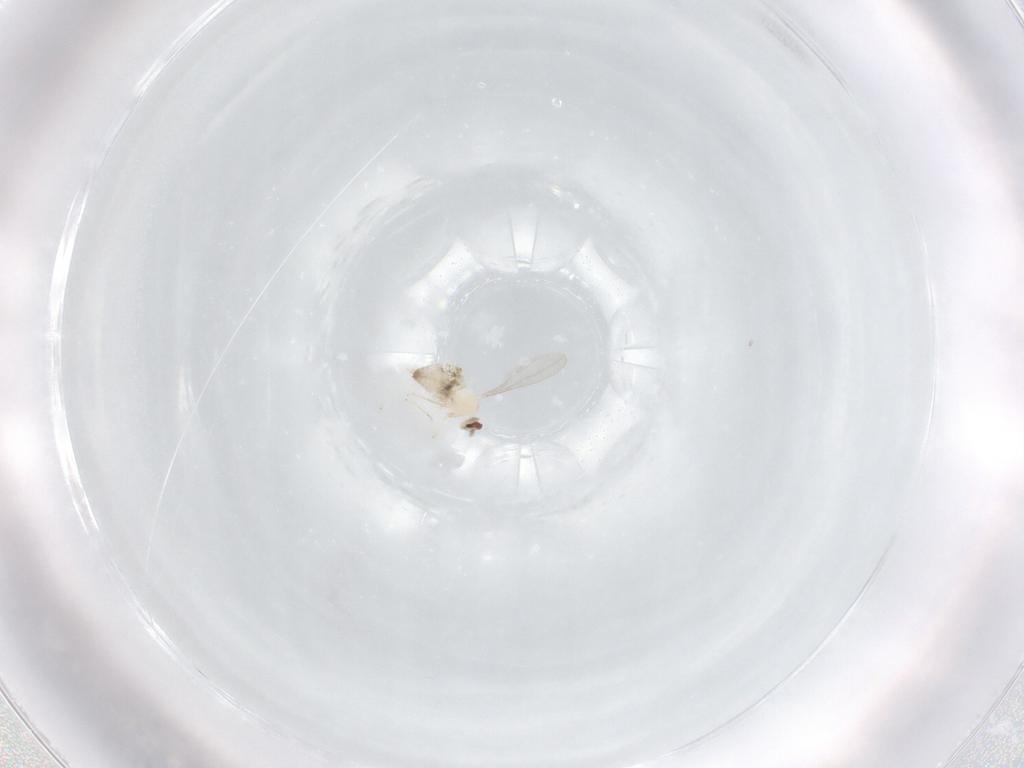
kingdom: Animalia
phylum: Arthropoda
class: Insecta
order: Diptera
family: Cecidomyiidae
